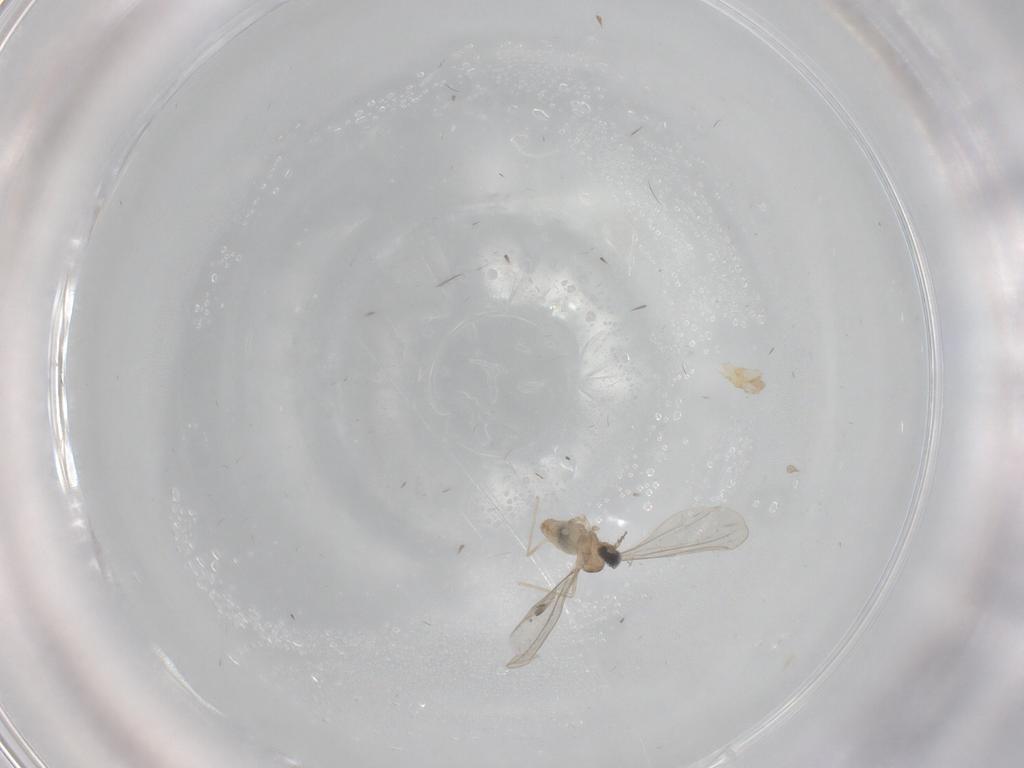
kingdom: Animalia
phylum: Arthropoda
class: Insecta
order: Diptera
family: Cecidomyiidae
